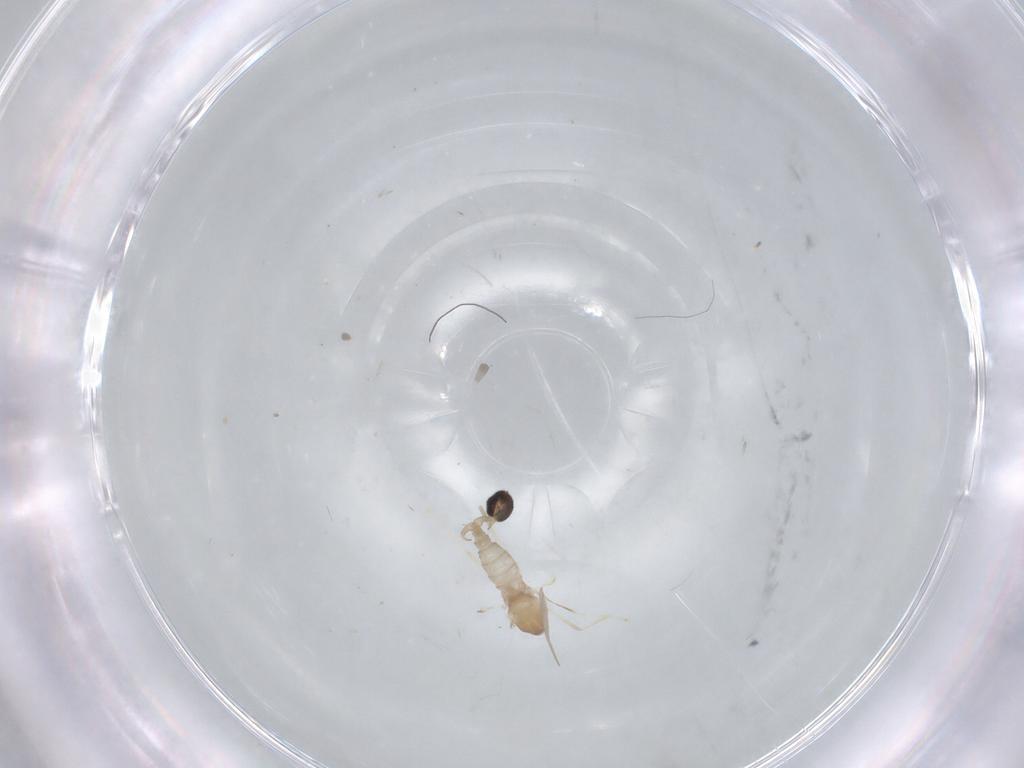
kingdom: Animalia
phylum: Arthropoda
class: Insecta
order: Diptera
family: Cecidomyiidae
